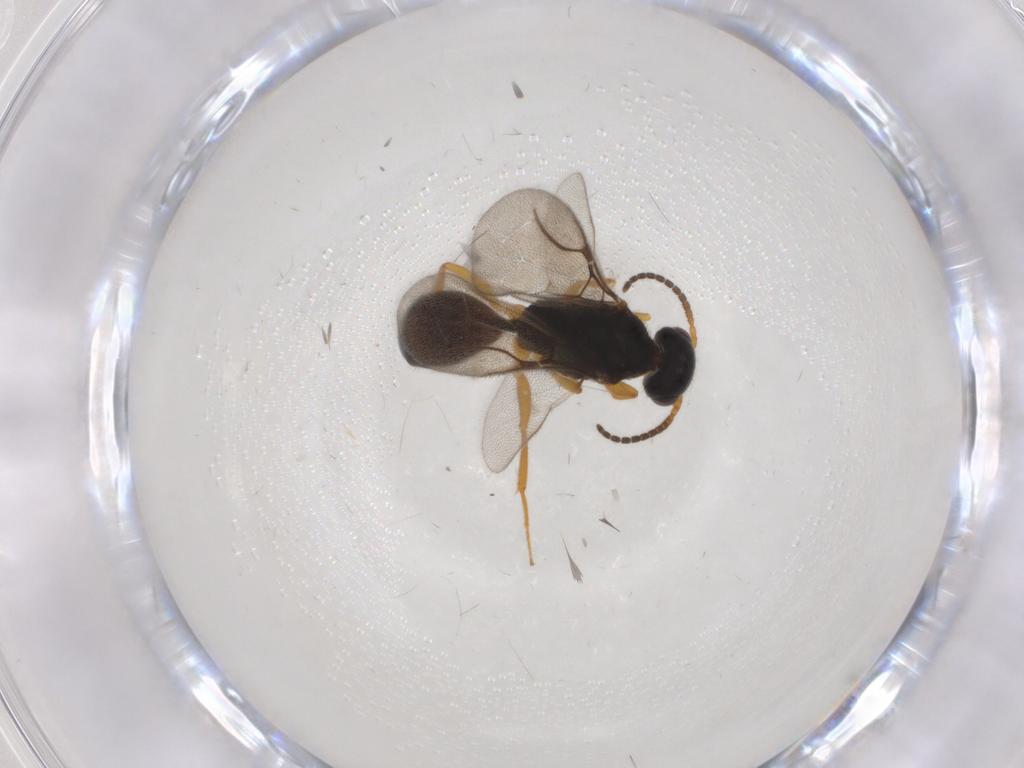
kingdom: Animalia
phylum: Arthropoda
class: Insecta
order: Hymenoptera
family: Bethylidae
